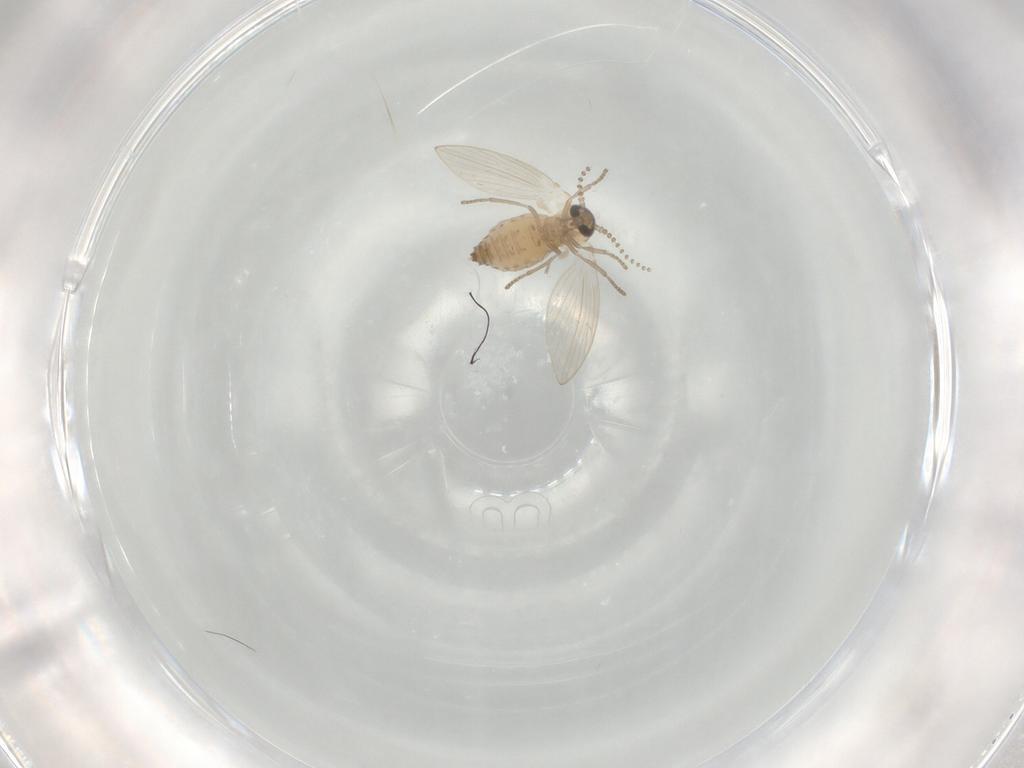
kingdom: Animalia
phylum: Arthropoda
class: Insecta
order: Diptera
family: Psychodidae
